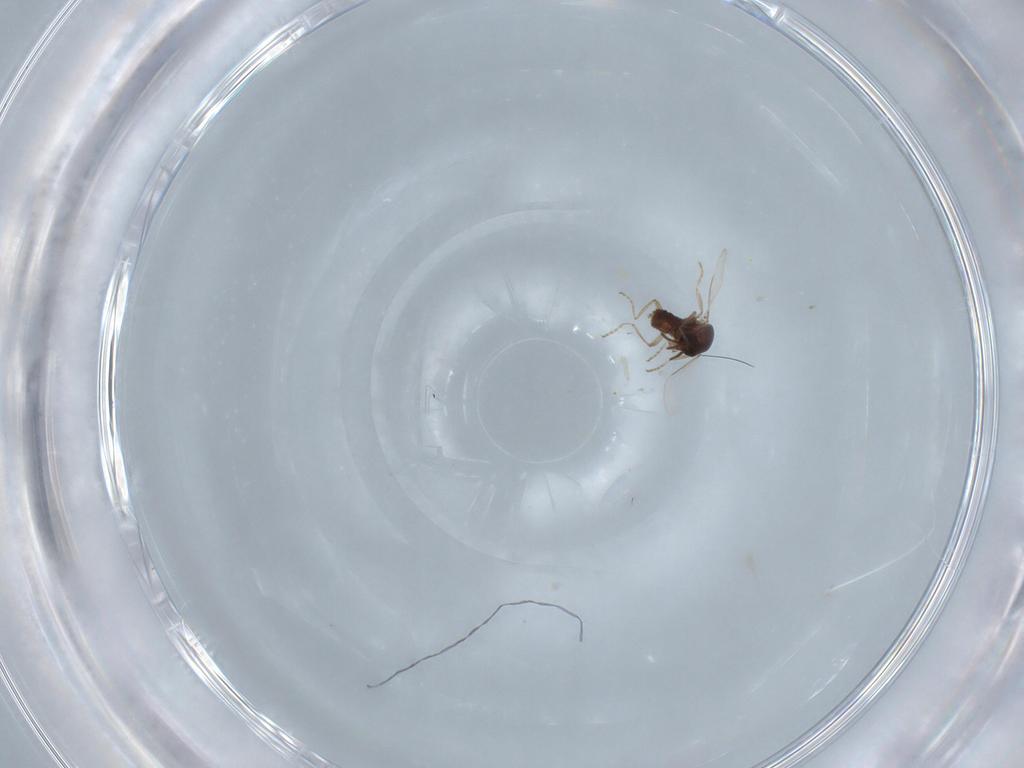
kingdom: Animalia
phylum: Arthropoda
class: Insecta
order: Diptera
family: Ceratopogonidae
